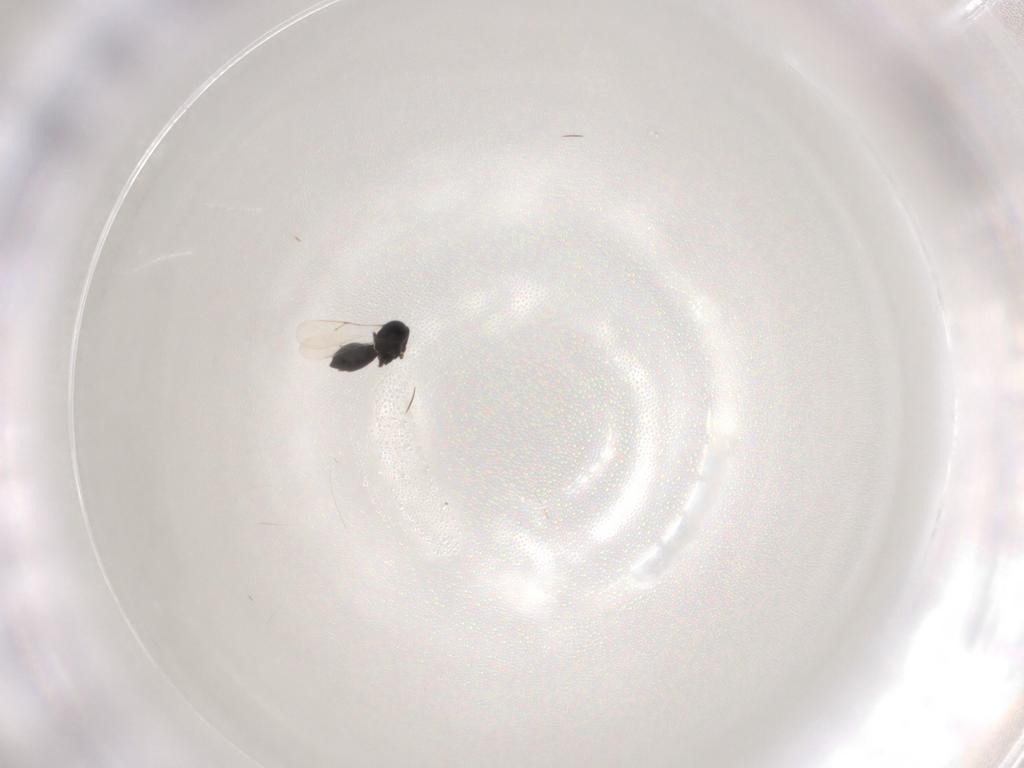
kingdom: Animalia
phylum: Arthropoda
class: Insecta
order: Hymenoptera
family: Scelionidae
